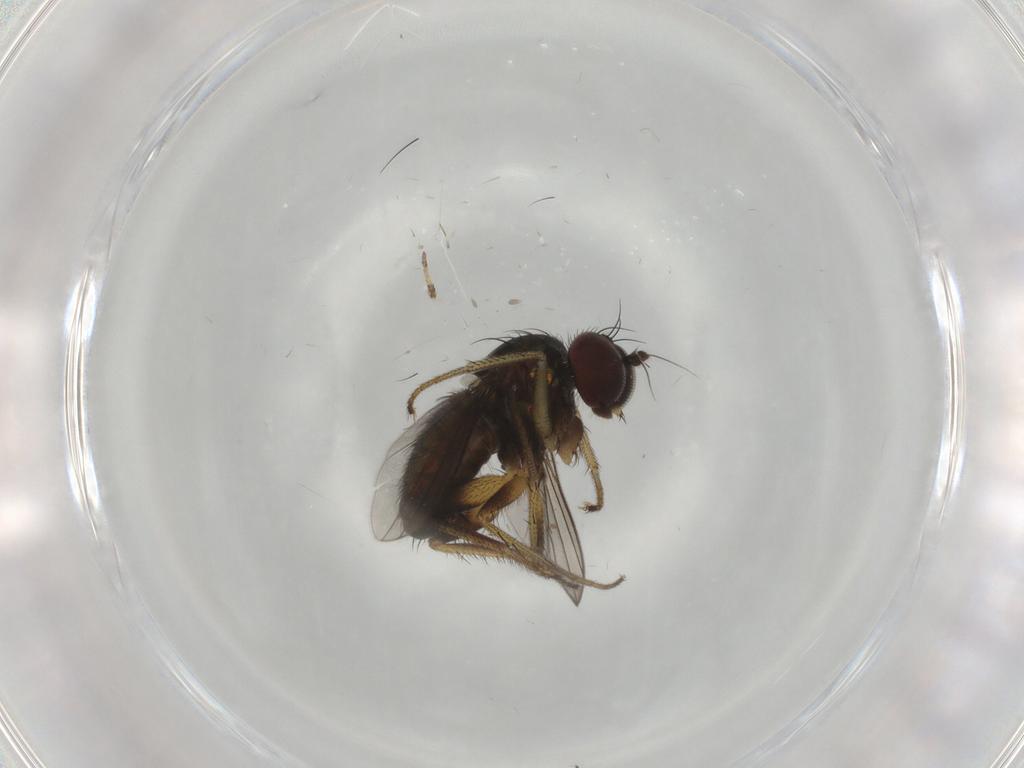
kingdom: Animalia
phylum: Arthropoda
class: Insecta
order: Diptera
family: Dolichopodidae
